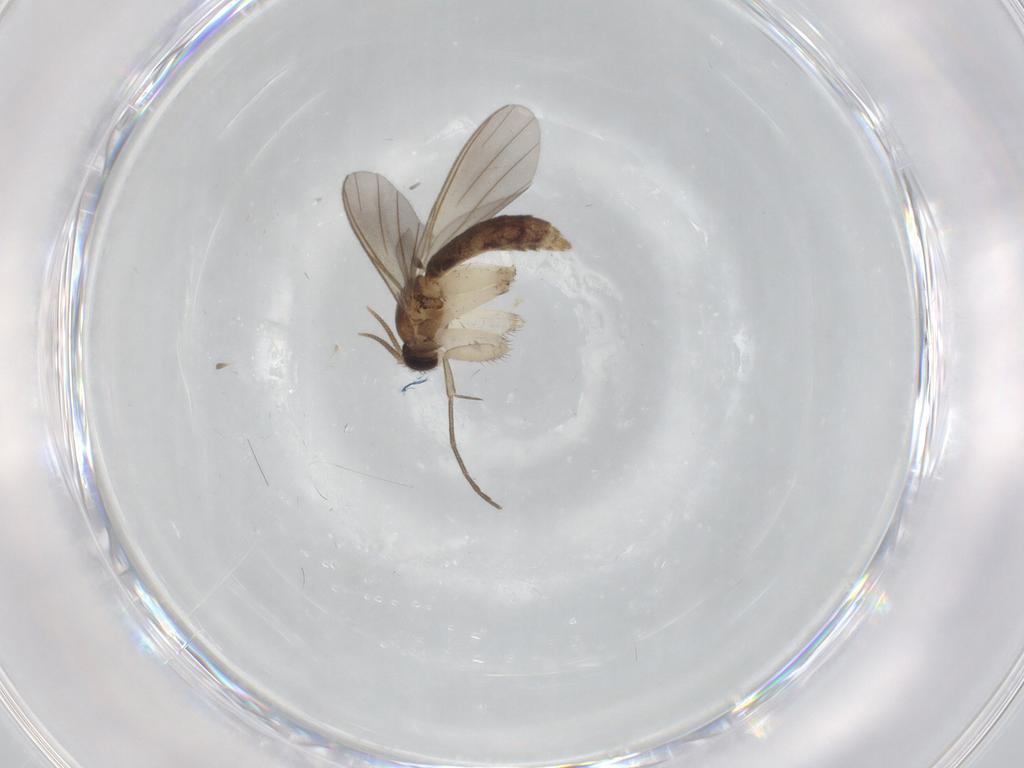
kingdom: Animalia
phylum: Arthropoda
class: Insecta
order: Diptera
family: Mycetophilidae
